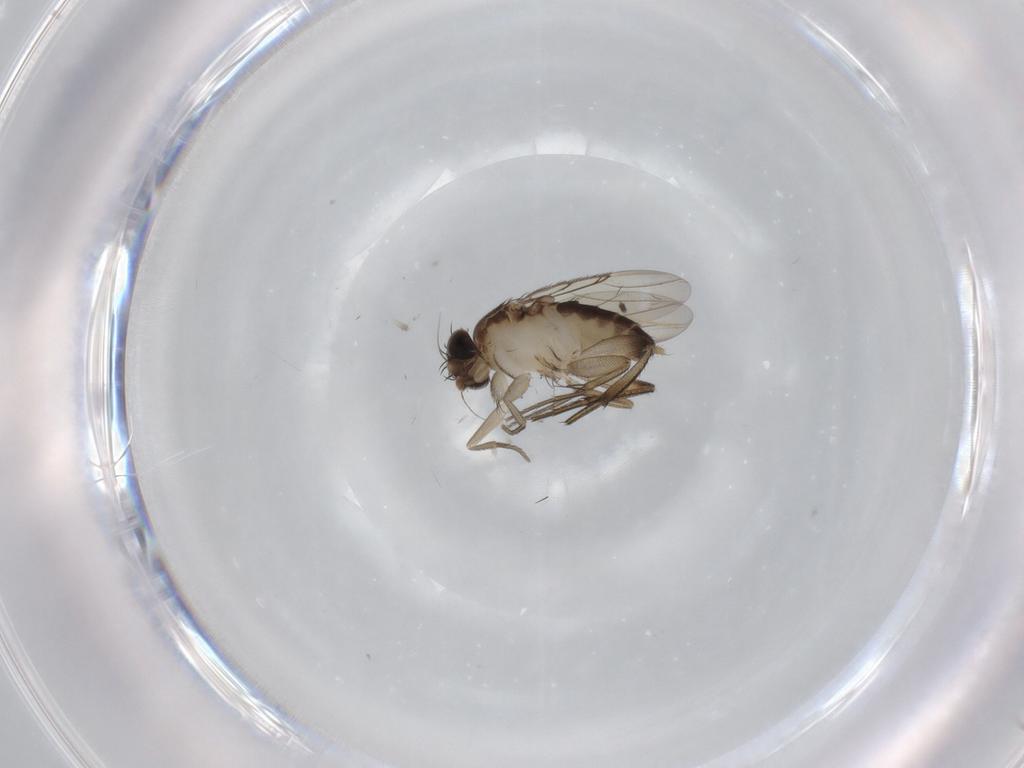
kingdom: Animalia
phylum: Arthropoda
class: Insecta
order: Diptera
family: Phoridae
